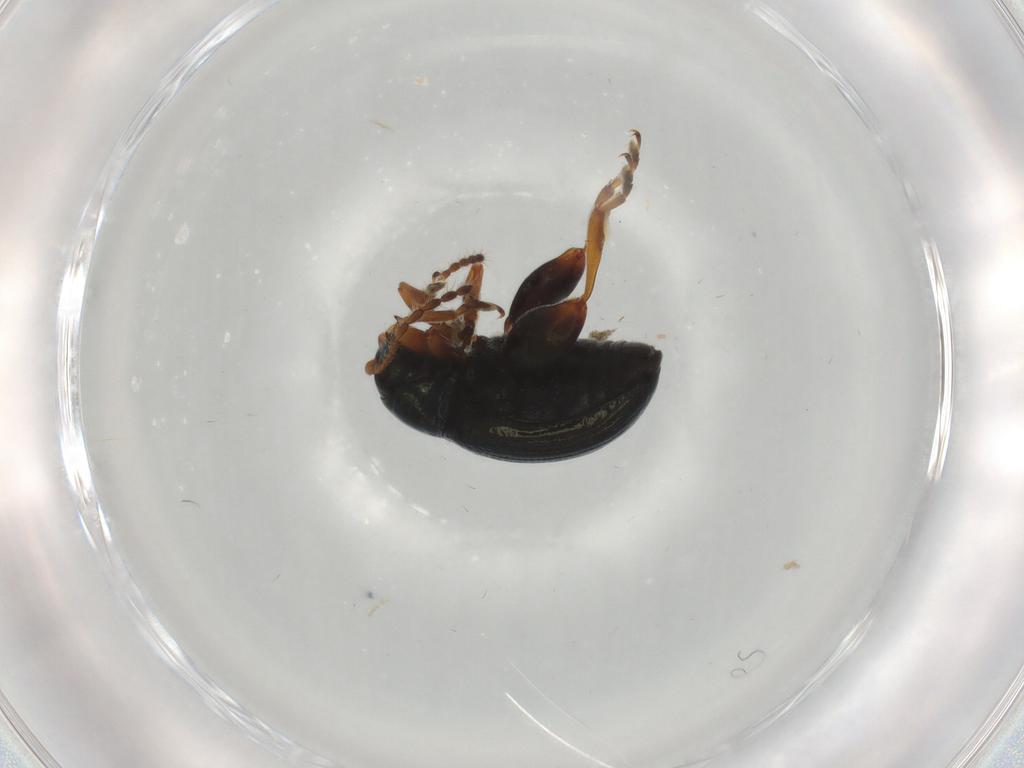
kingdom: Animalia
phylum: Arthropoda
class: Insecta
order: Coleoptera
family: Chrysomelidae
